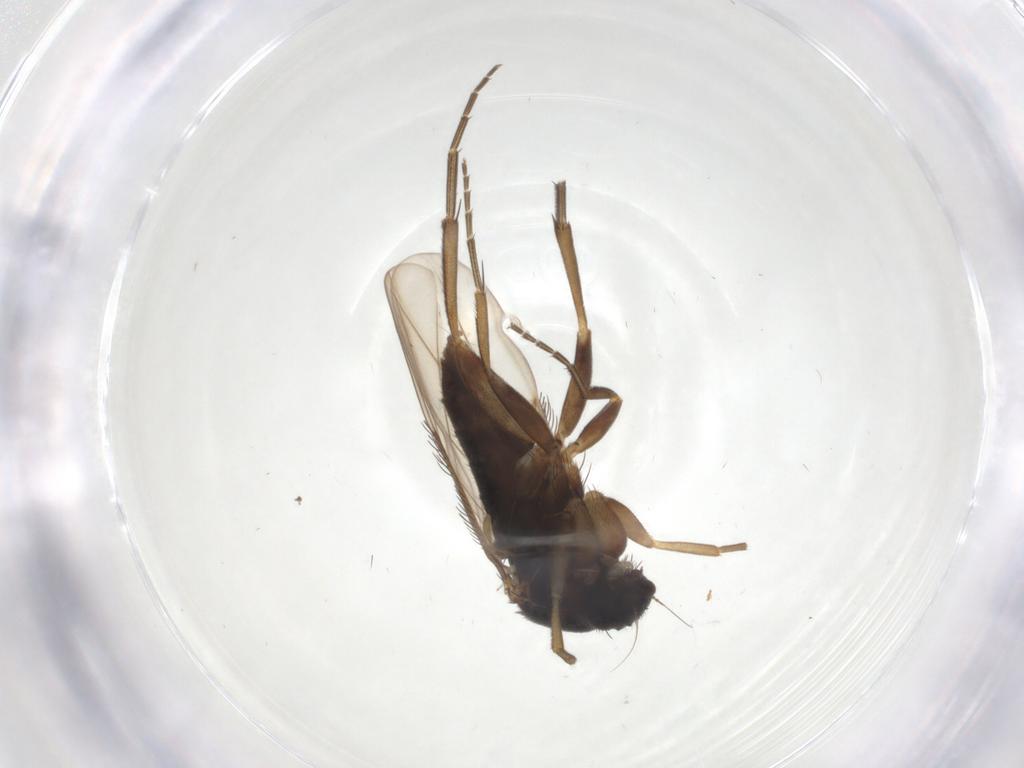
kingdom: Animalia
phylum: Arthropoda
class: Insecta
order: Diptera
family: Phoridae
